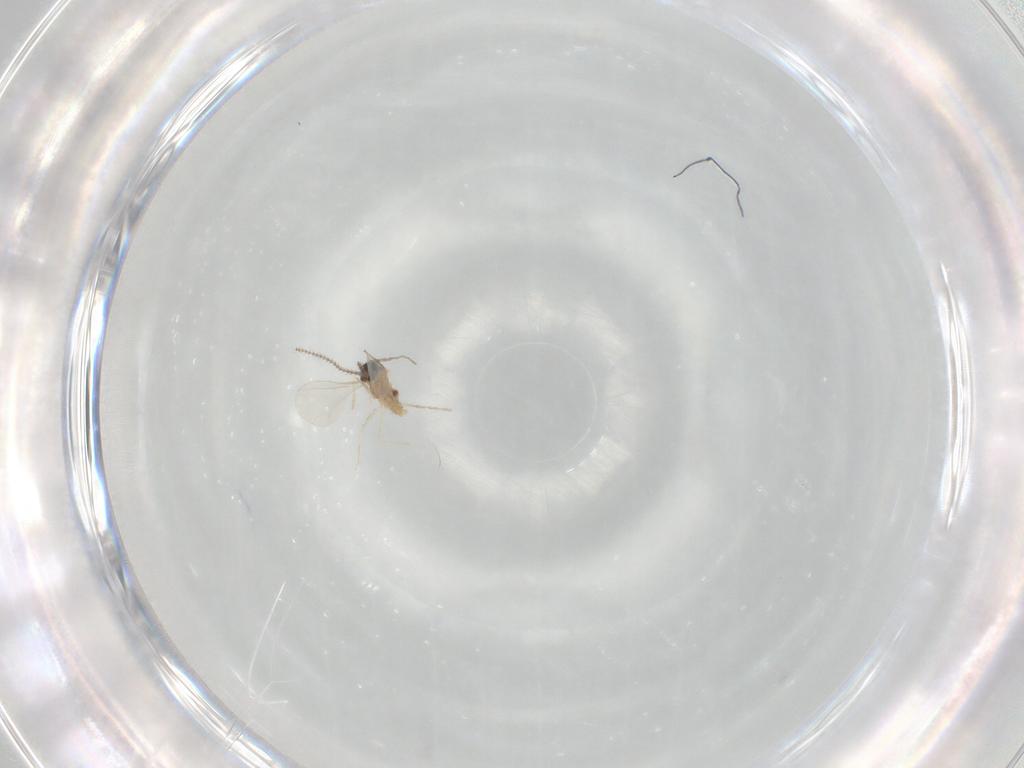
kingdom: Animalia
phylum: Arthropoda
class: Insecta
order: Diptera
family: Cecidomyiidae
